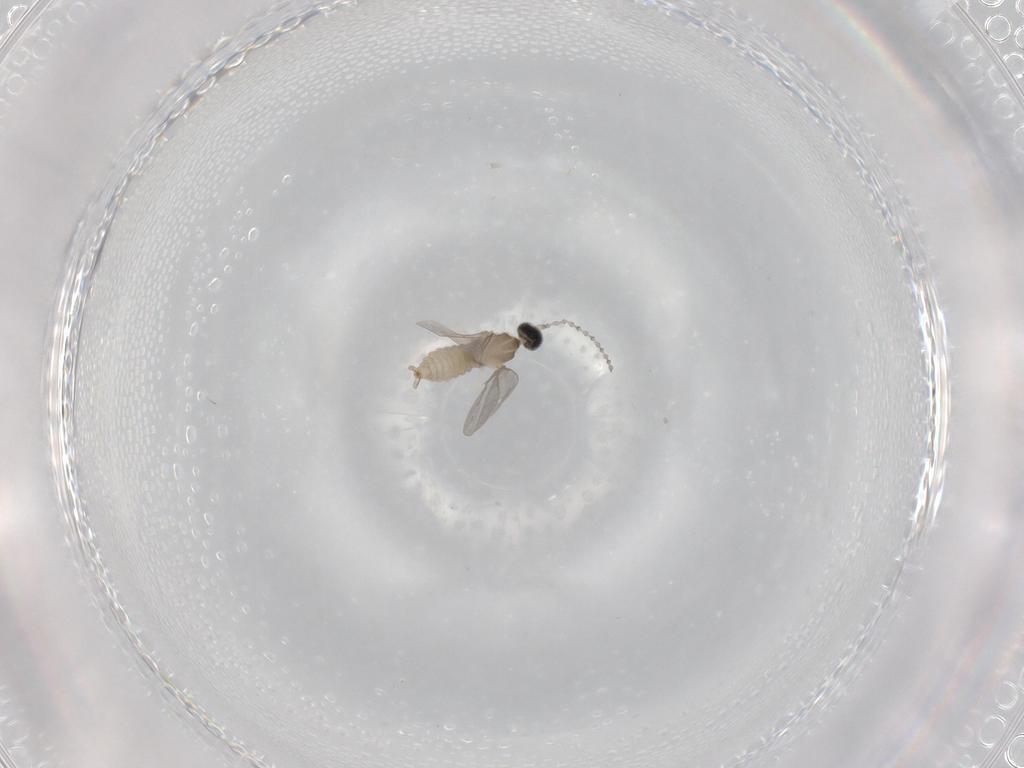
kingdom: Animalia
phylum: Arthropoda
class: Insecta
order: Diptera
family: Cecidomyiidae
